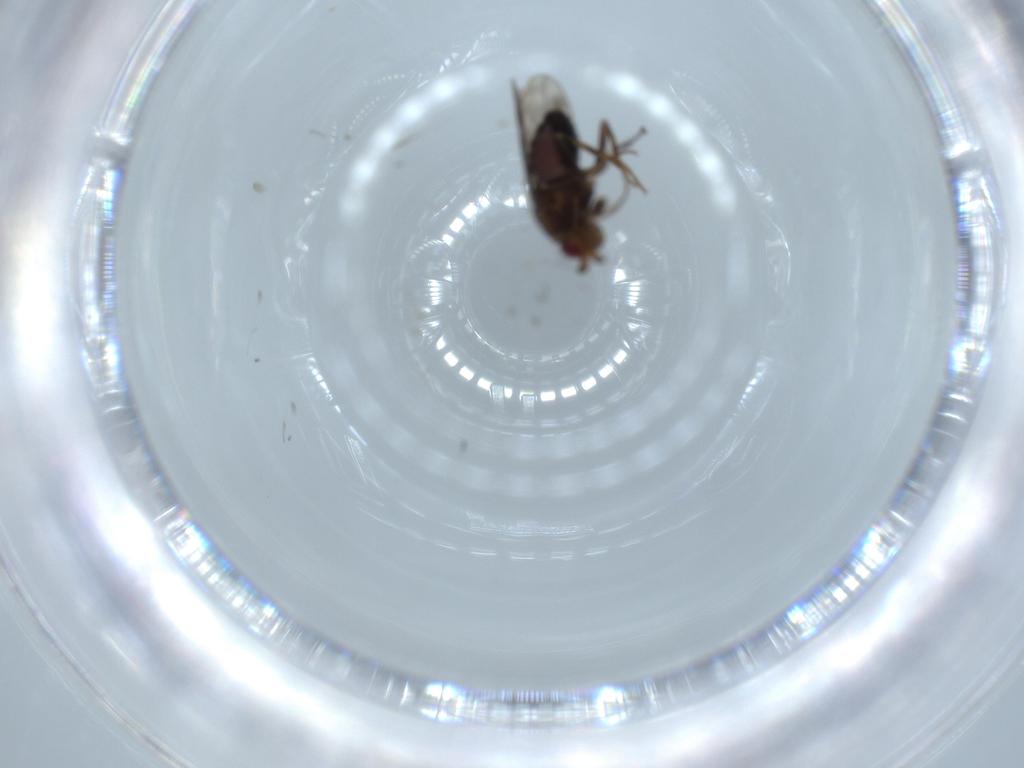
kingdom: Animalia
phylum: Arthropoda
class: Insecta
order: Diptera
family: Sphaeroceridae
